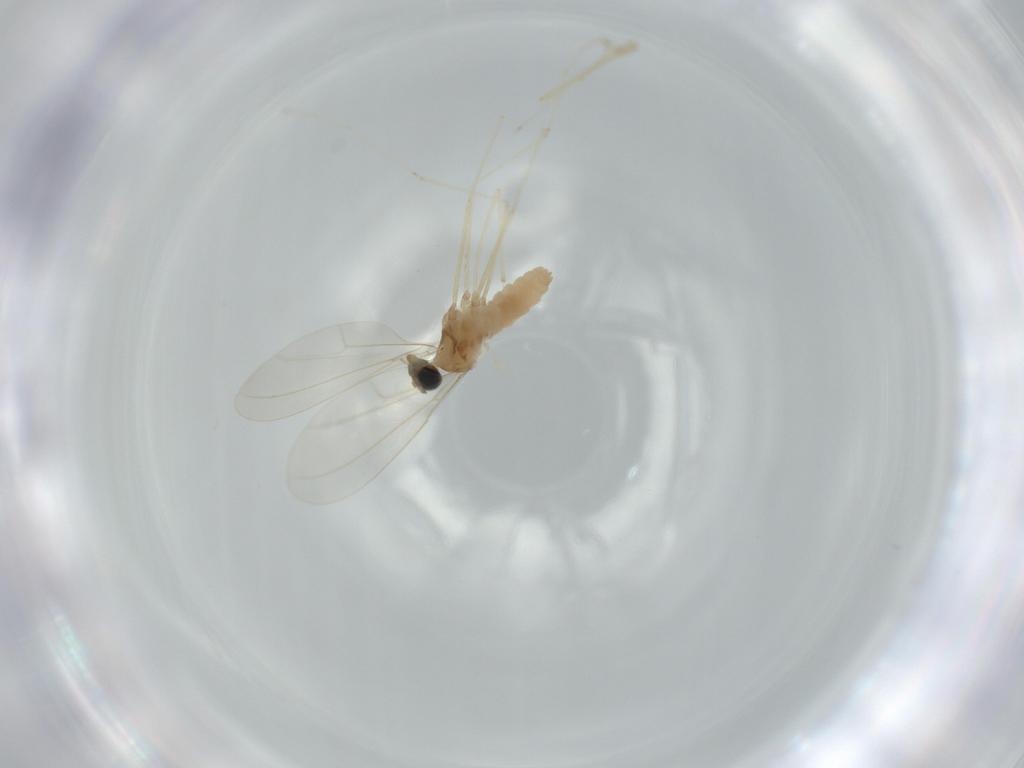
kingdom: Animalia
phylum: Arthropoda
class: Insecta
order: Diptera
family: Cecidomyiidae
